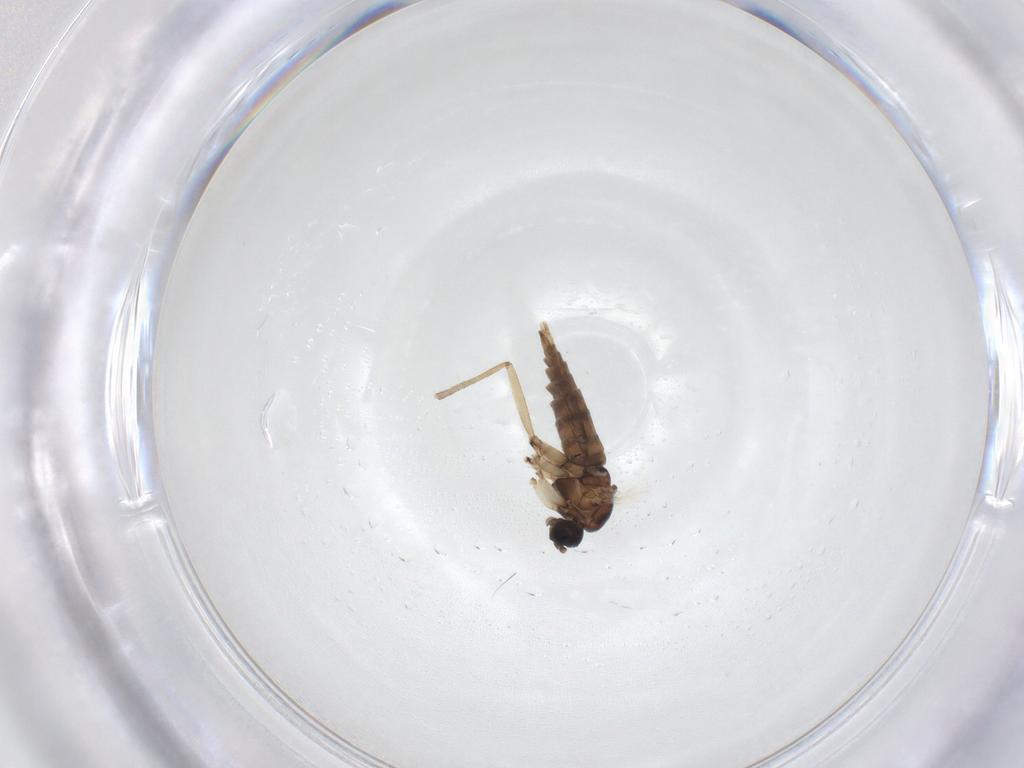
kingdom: Animalia
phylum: Arthropoda
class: Insecta
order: Diptera
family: Sciaridae
